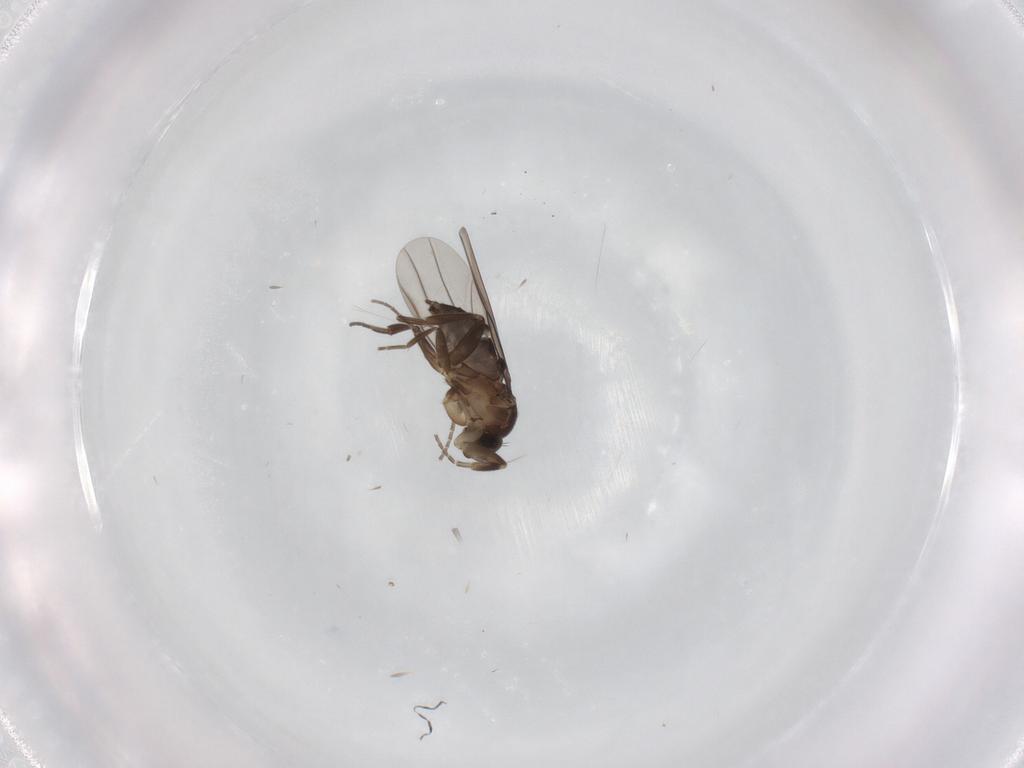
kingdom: Animalia
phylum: Arthropoda
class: Insecta
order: Diptera
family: Phoridae
